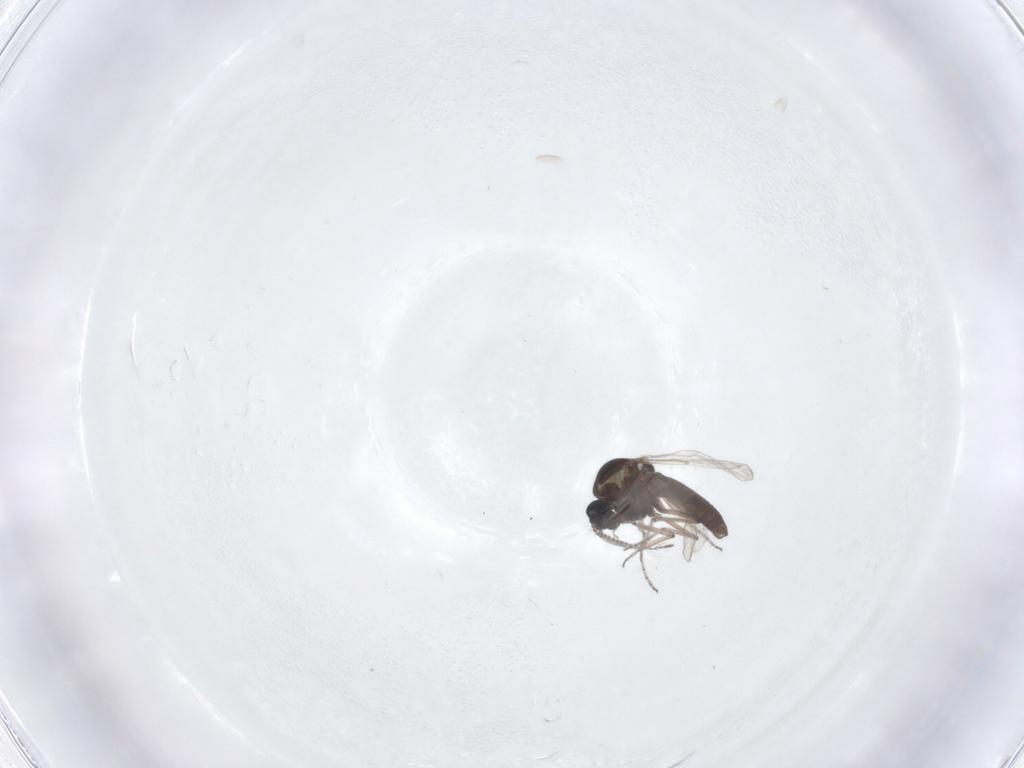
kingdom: Animalia
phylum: Arthropoda
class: Insecta
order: Diptera
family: Ceratopogonidae
